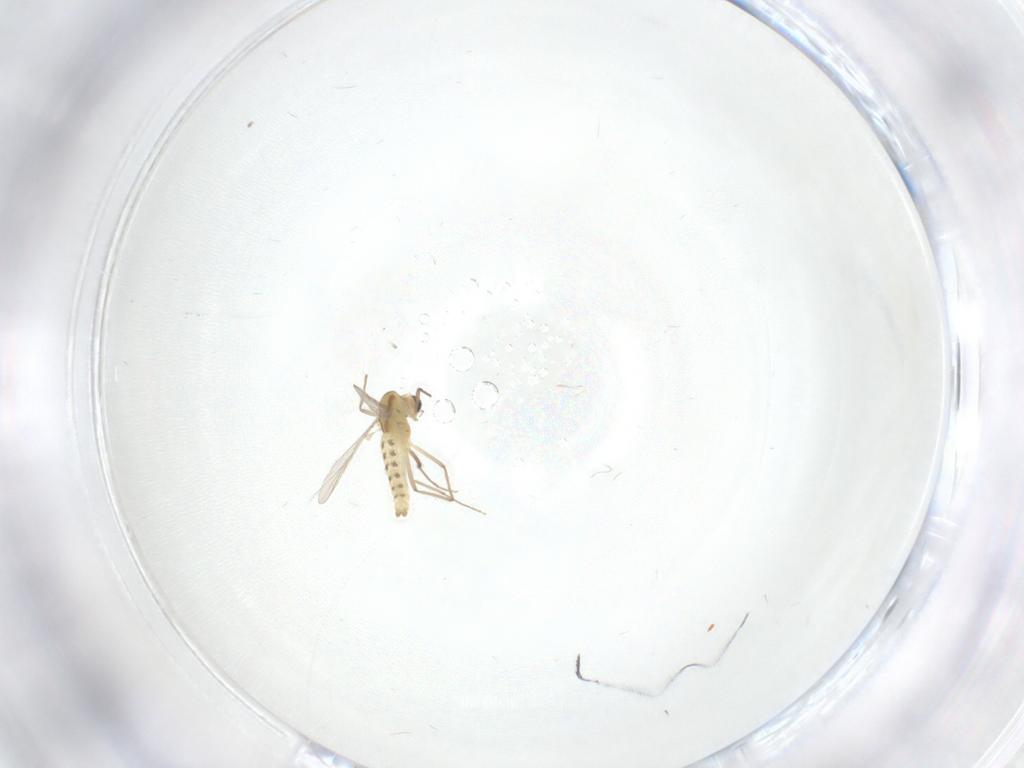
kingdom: Animalia
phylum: Arthropoda
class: Insecta
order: Diptera
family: Chironomidae
